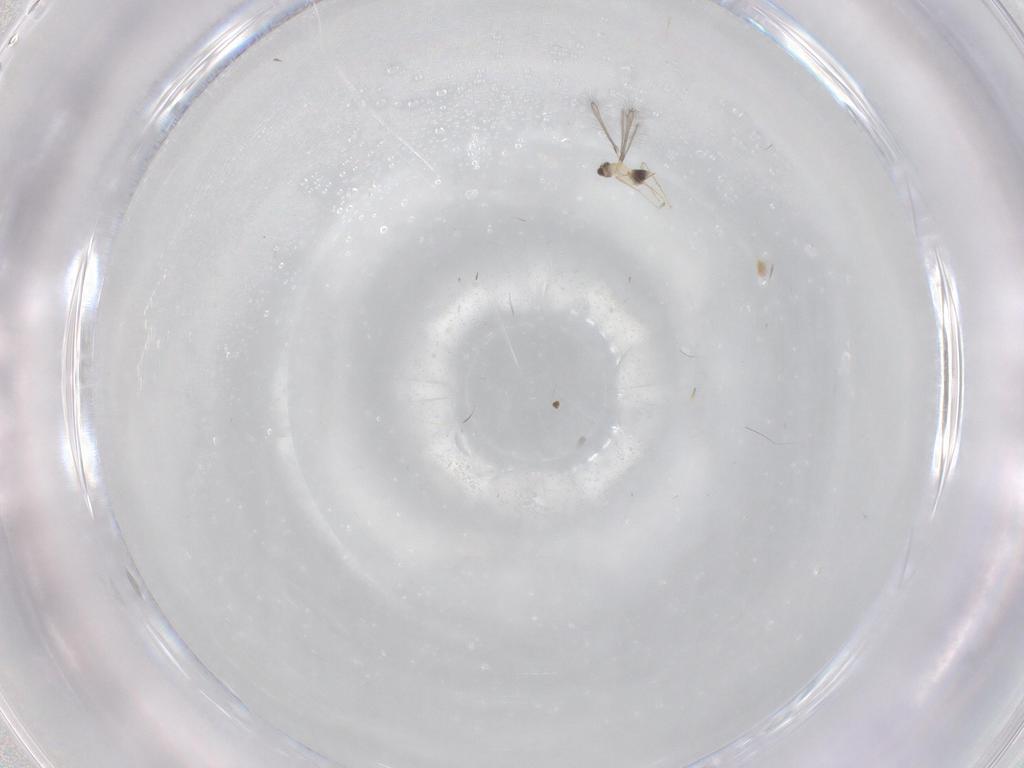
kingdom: Animalia
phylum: Arthropoda
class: Insecta
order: Hymenoptera
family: Mymaridae
